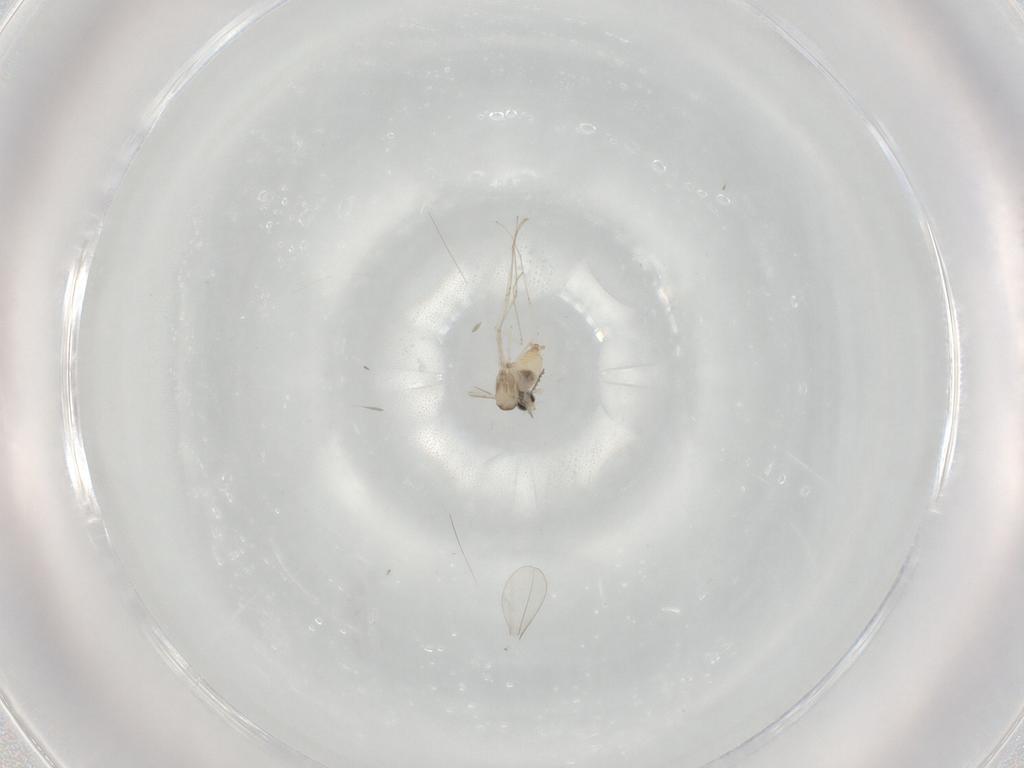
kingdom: Animalia
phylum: Arthropoda
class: Insecta
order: Diptera
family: Cecidomyiidae
